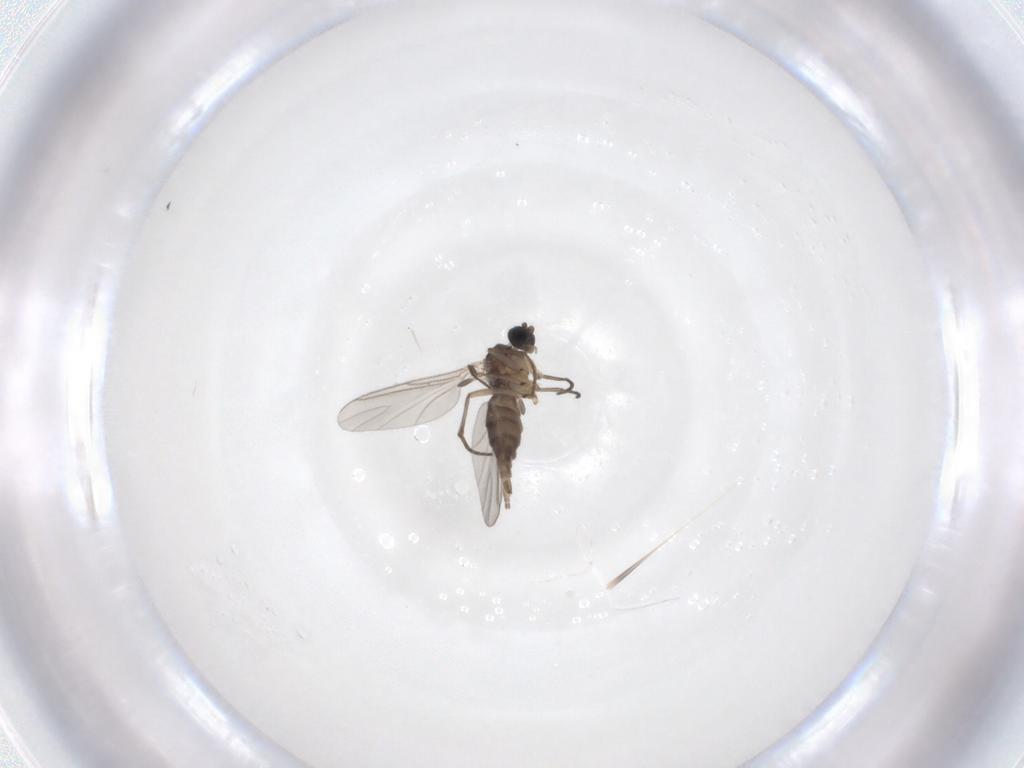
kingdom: Animalia
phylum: Arthropoda
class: Insecta
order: Diptera
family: Sciaridae
